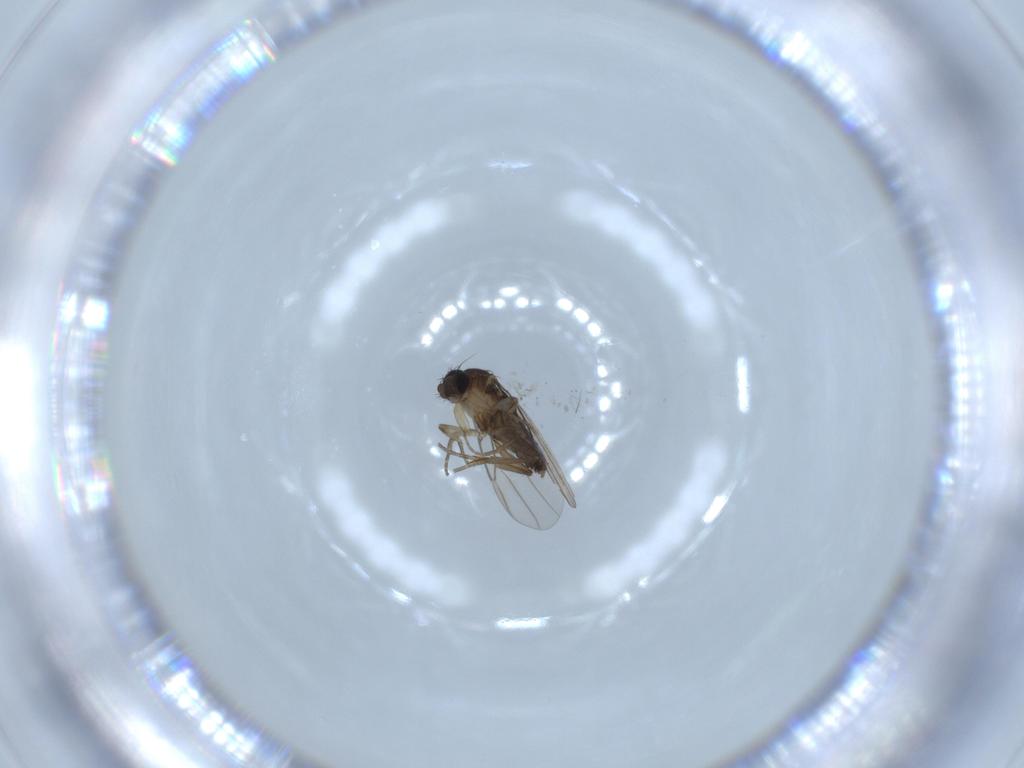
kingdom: Animalia
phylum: Arthropoda
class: Insecta
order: Diptera
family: Phoridae
